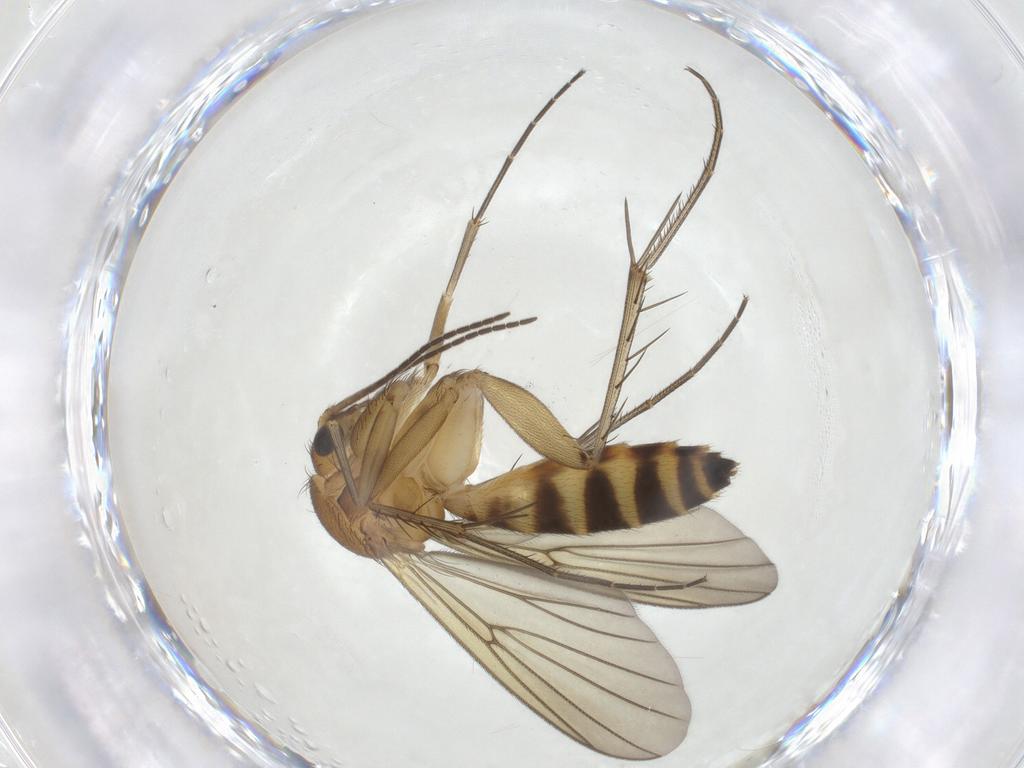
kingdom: Animalia
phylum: Arthropoda
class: Insecta
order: Diptera
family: Mycetophilidae
